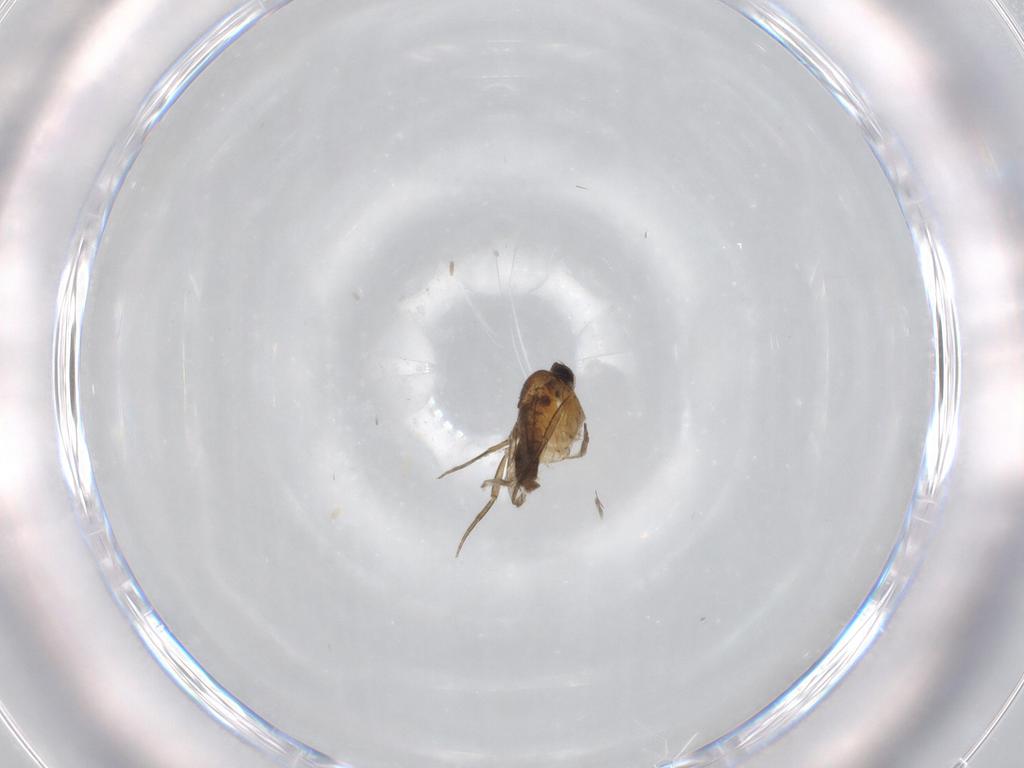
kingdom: Animalia
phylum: Arthropoda
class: Insecta
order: Diptera
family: Phoridae
